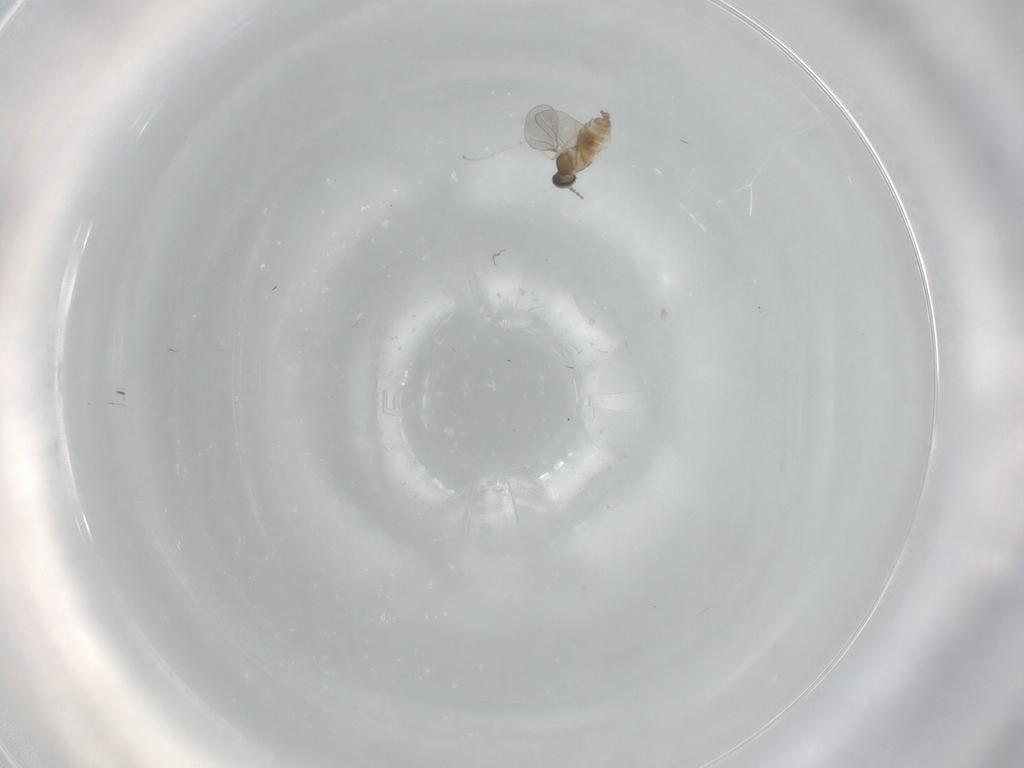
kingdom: Animalia
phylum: Arthropoda
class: Insecta
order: Diptera
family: Cecidomyiidae
